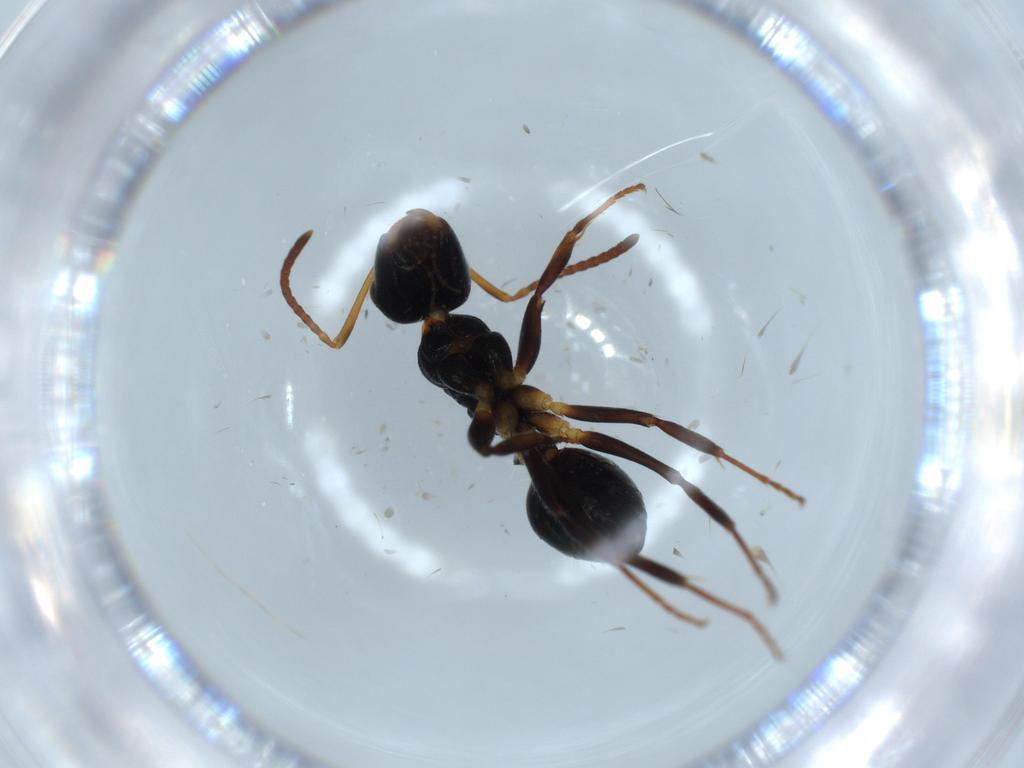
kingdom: Animalia
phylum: Arthropoda
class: Insecta
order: Hymenoptera
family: Formicidae
